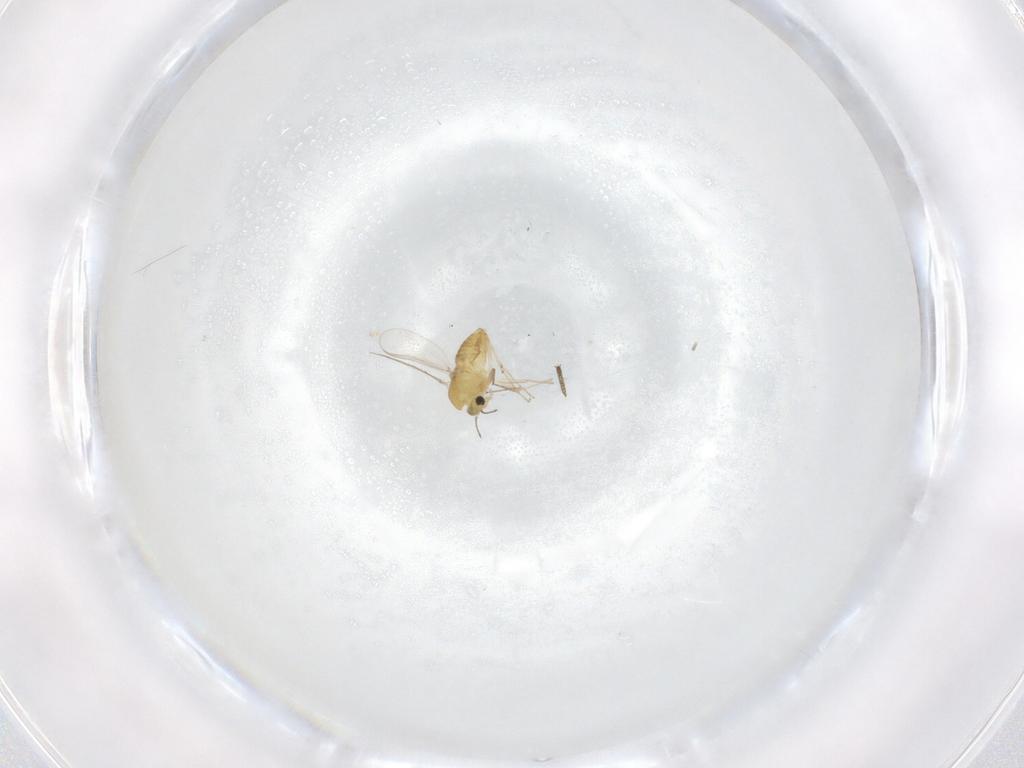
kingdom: Animalia
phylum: Arthropoda
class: Insecta
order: Diptera
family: Chironomidae
